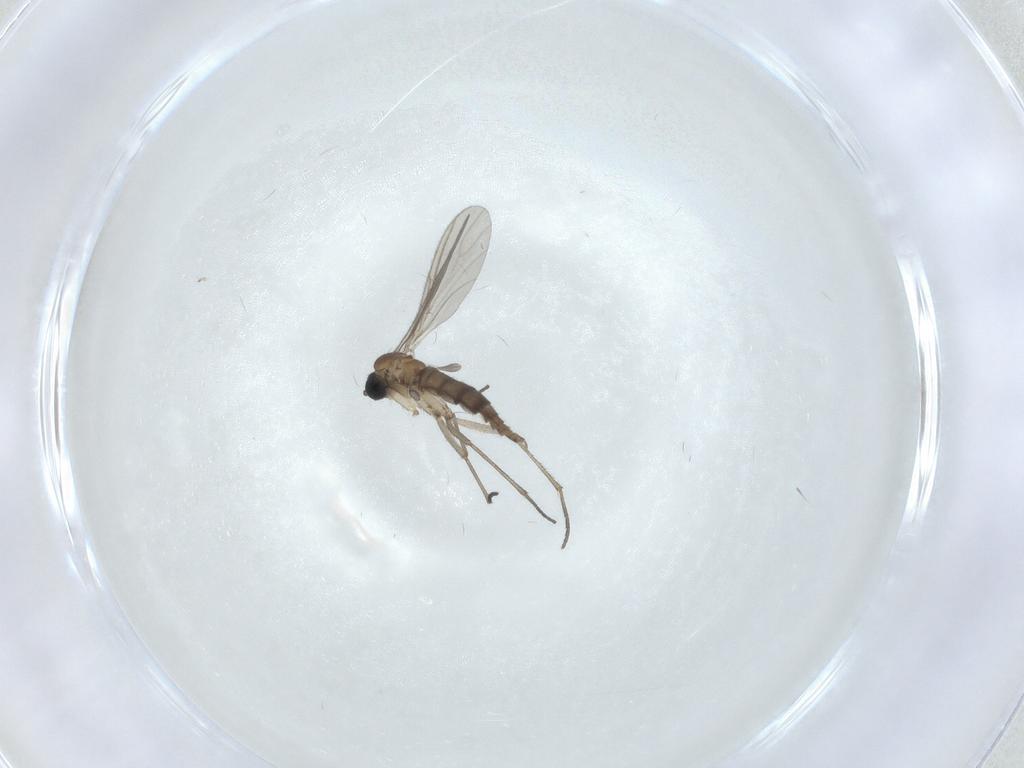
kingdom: Animalia
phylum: Arthropoda
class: Insecta
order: Diptera
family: Sciaridae
